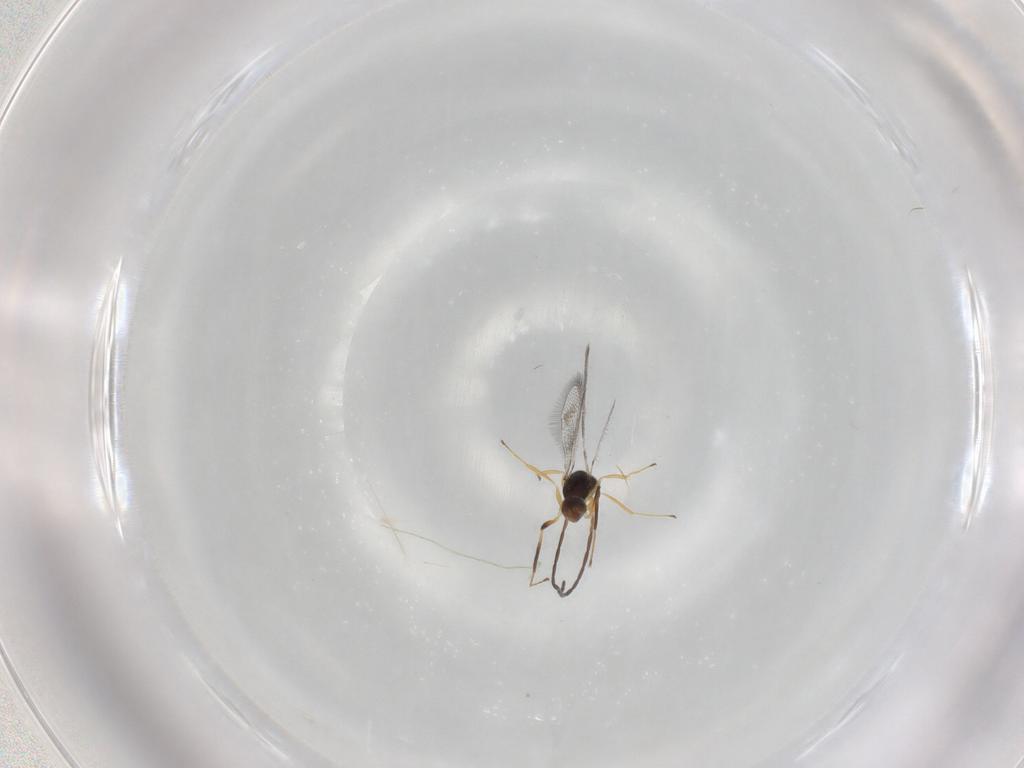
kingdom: Animalia
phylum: Arthropoda
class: Insecta
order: Hymenoptera
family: Mymaridae
